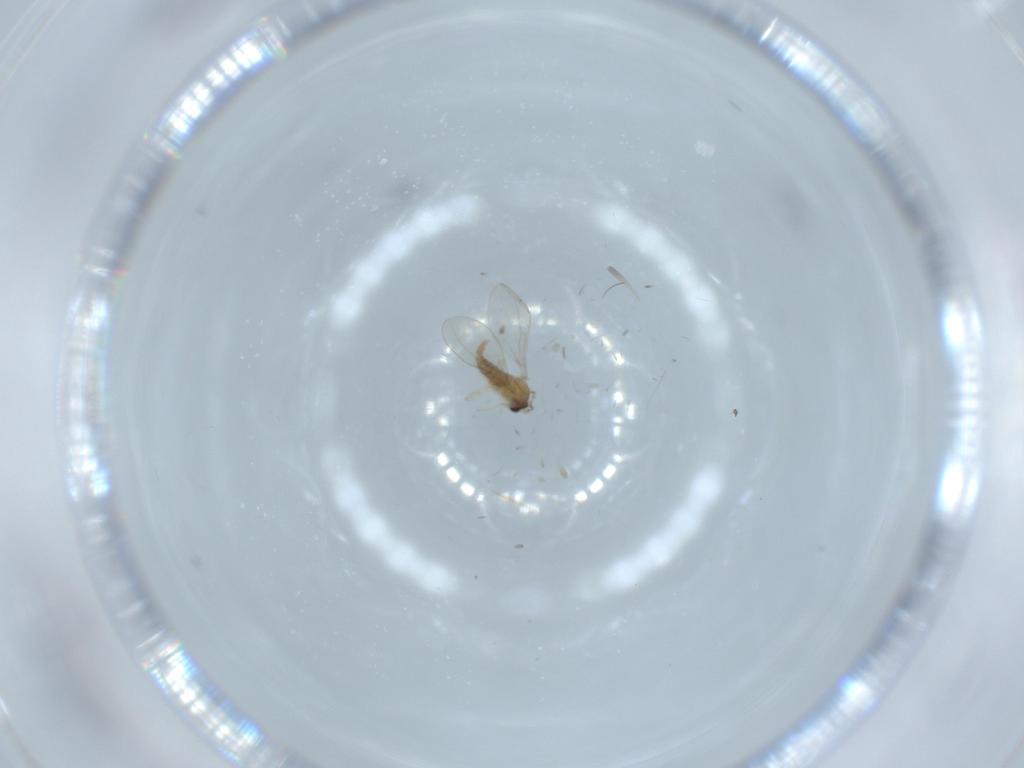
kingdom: Animalia
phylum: Arthropoda
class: Insecta
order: Diptera
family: Cecidomyiidae
